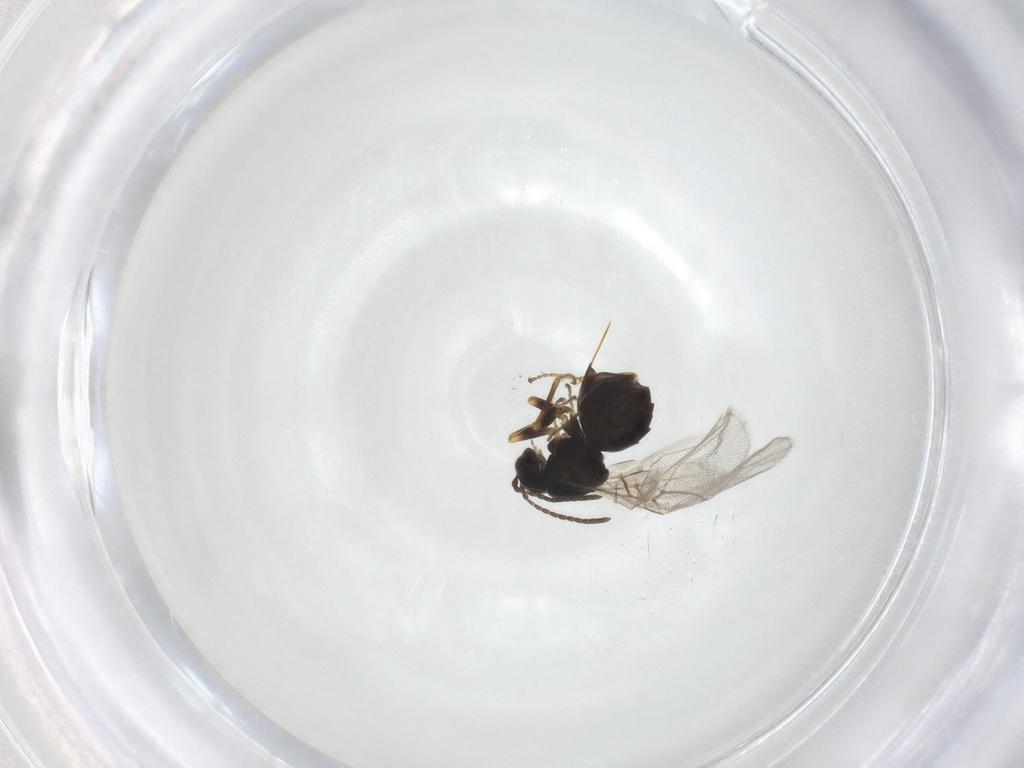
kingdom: Animalia
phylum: Arthropoda
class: Insecta
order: Hymenoptera
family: Cynipidae
